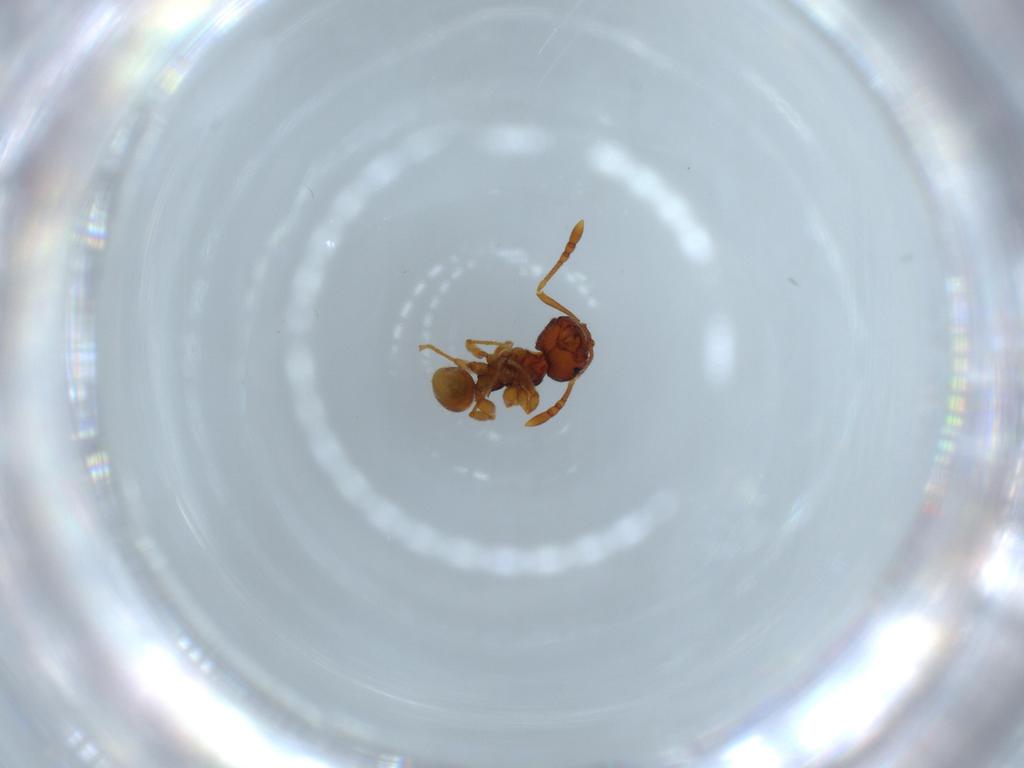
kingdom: Animalia
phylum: Arthropoda
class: Insecta
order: Hymenoptera
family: Formicidae
